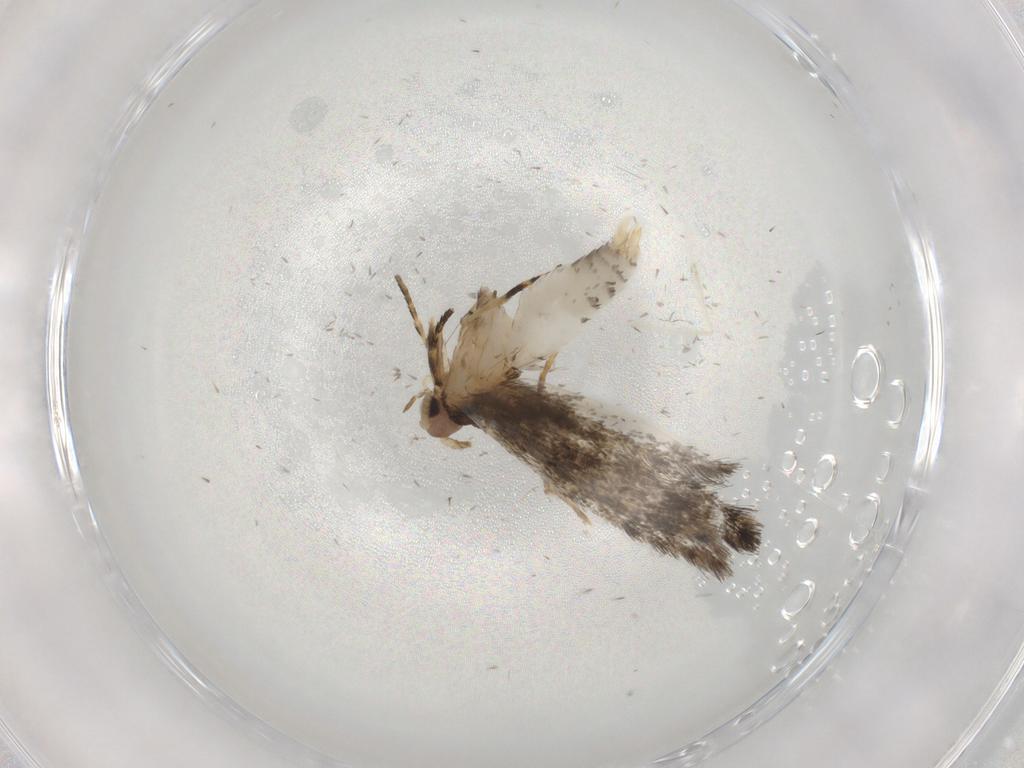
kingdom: Animalia
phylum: Arthropoda
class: Insecta
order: Lepidoptera
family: Tineidae
